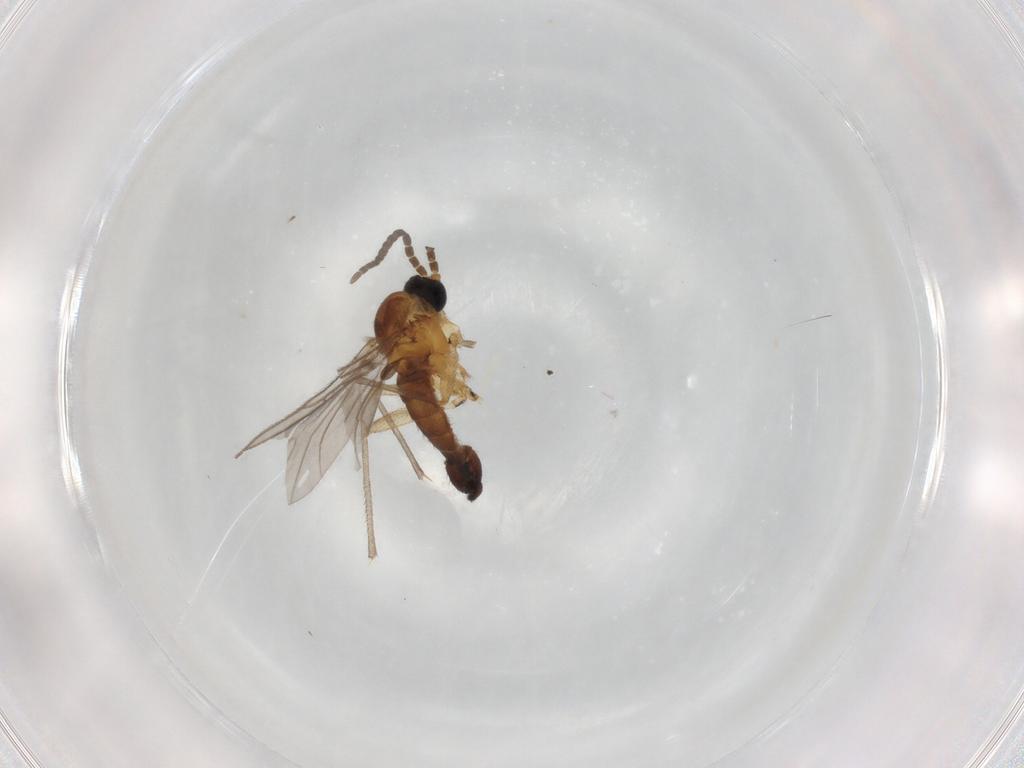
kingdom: Animalia
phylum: Arthropoda
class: Insecta
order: Diptera
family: Sciaridae
